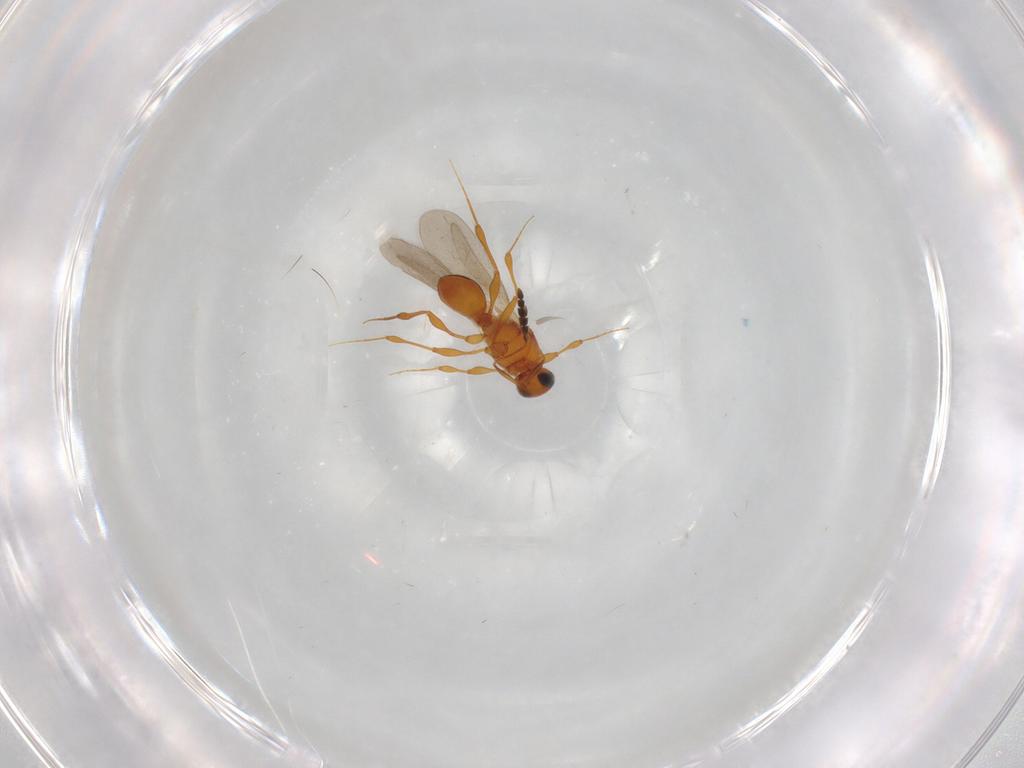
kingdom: Animalia
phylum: Arthropoda
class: Insecta
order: Hymenoptera
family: Platygastridae
